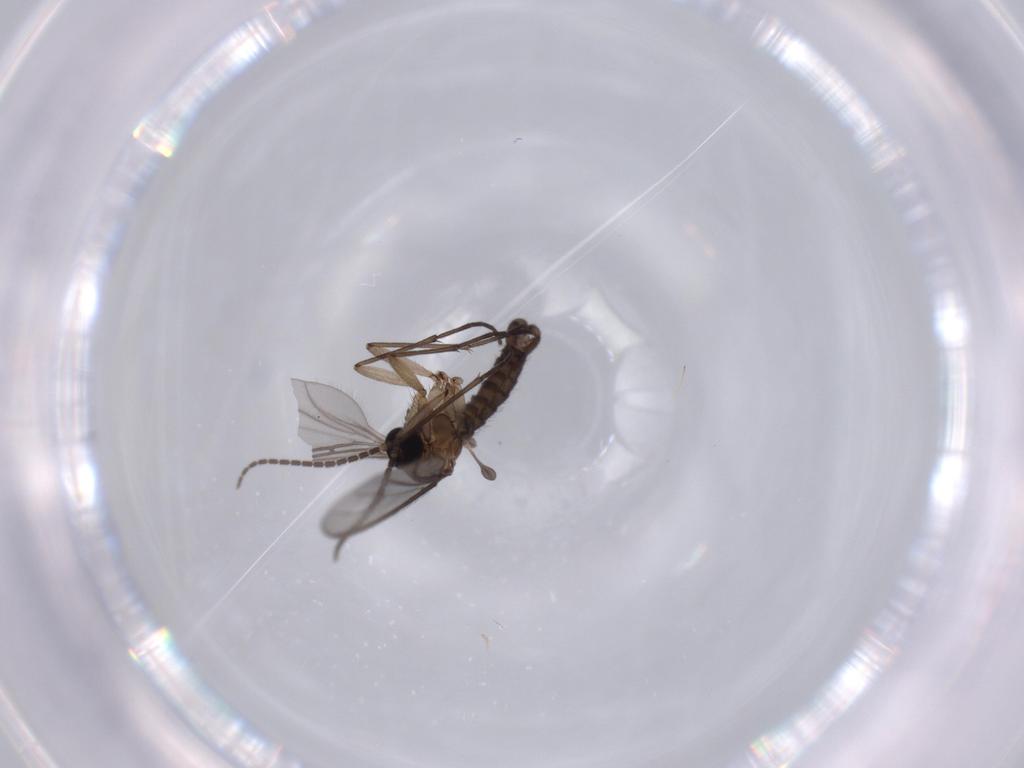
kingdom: Animalia
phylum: Arthropoda
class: Insecta
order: Diptera
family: Sciaridae
